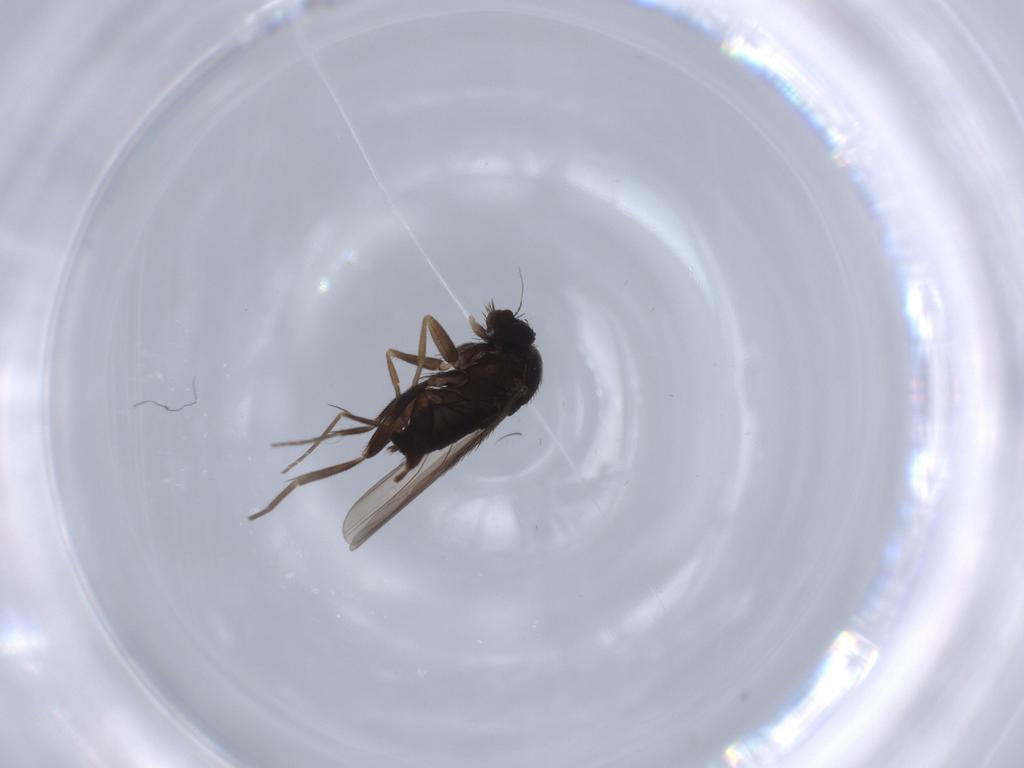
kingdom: Animalia
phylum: Arthropoda
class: Insecta
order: Diptera
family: Phoridae
